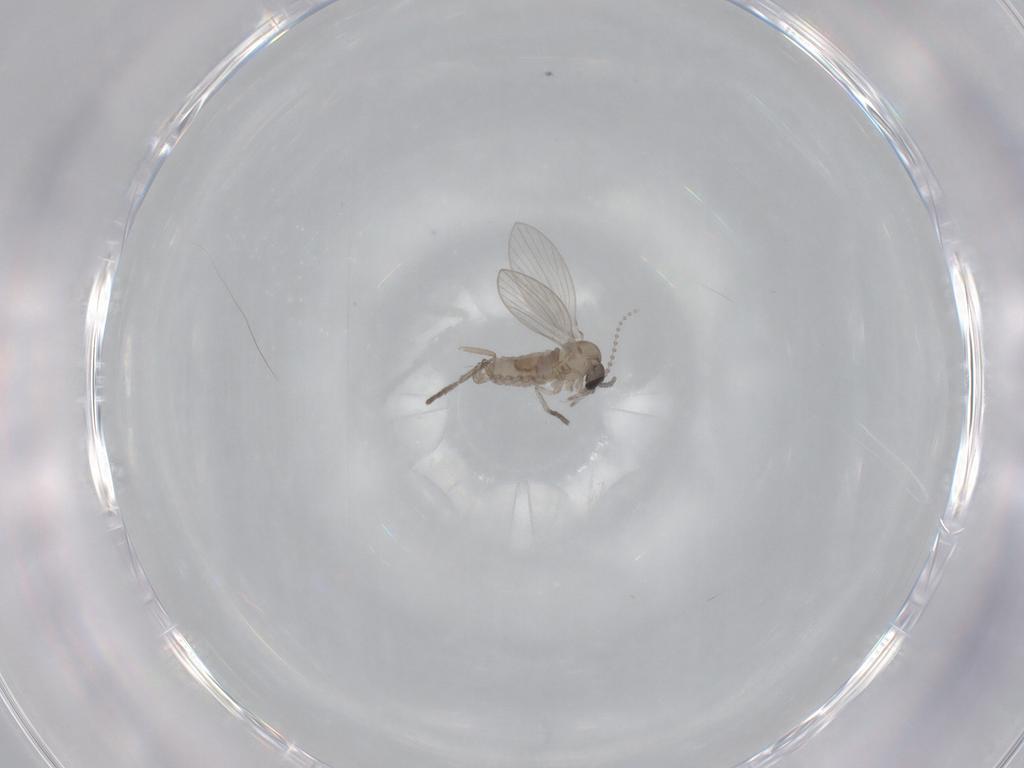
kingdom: Animalia
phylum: Arthropoda
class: Insecta
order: Diptera
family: Psychodidae
